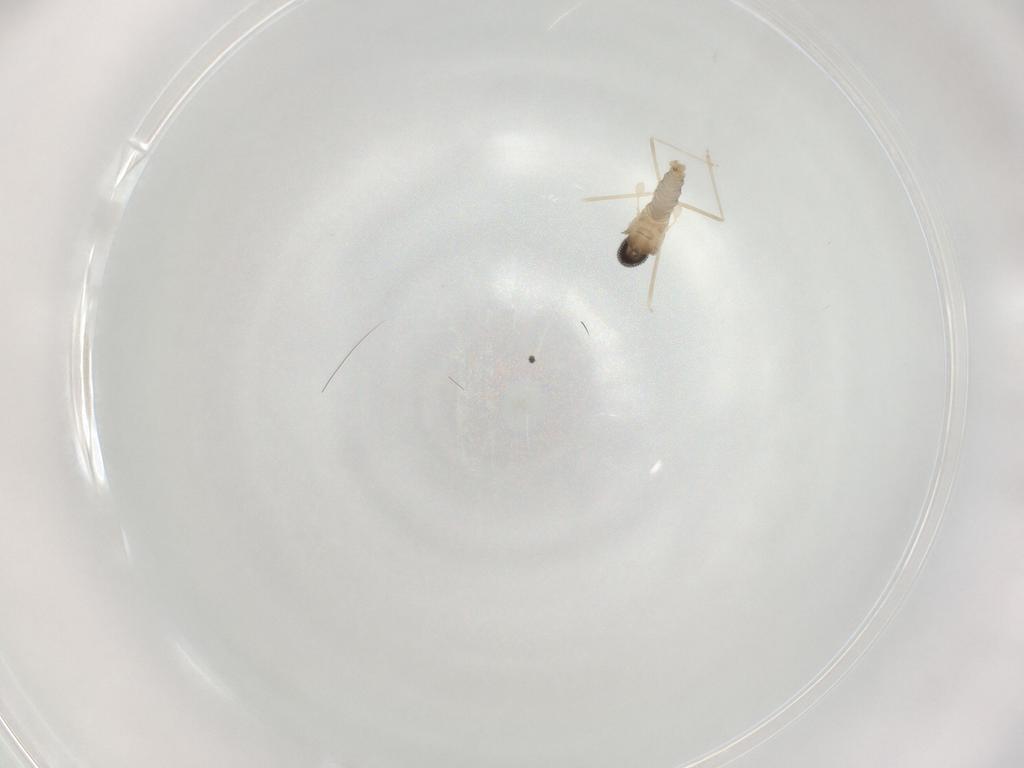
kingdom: Animalia
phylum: Arthropoda
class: Insecta
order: Diptera
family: Cecidomyiidae
